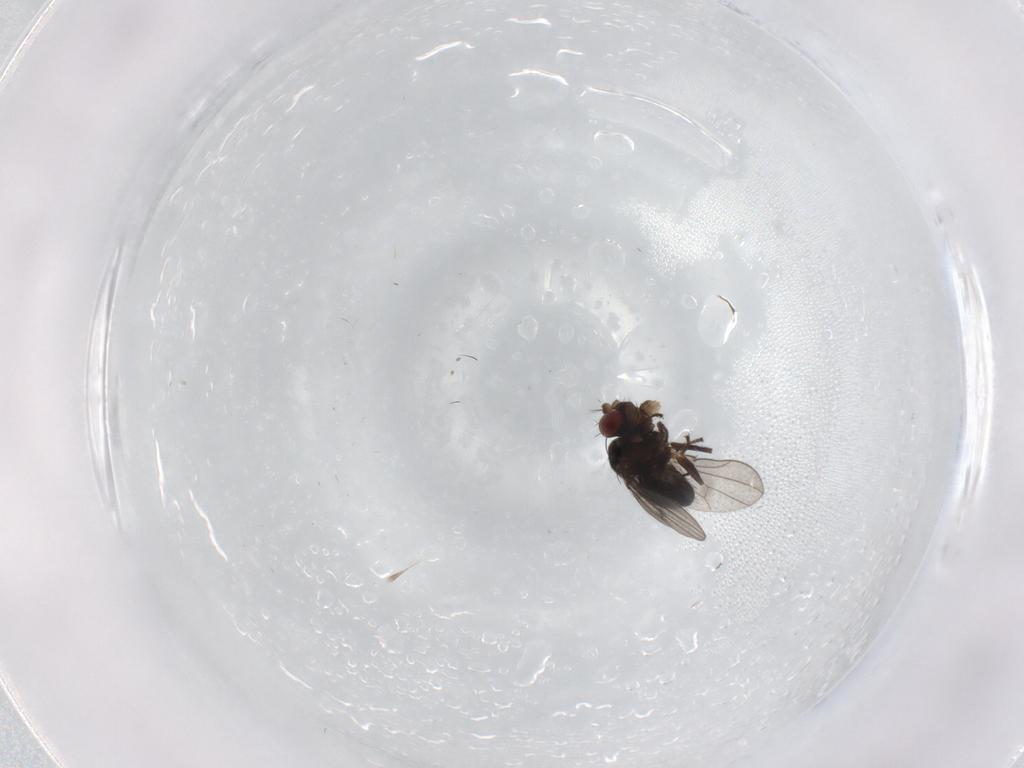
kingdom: Animalia
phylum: Arthropoda
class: Insecta
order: Diptera
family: Ephydridae
